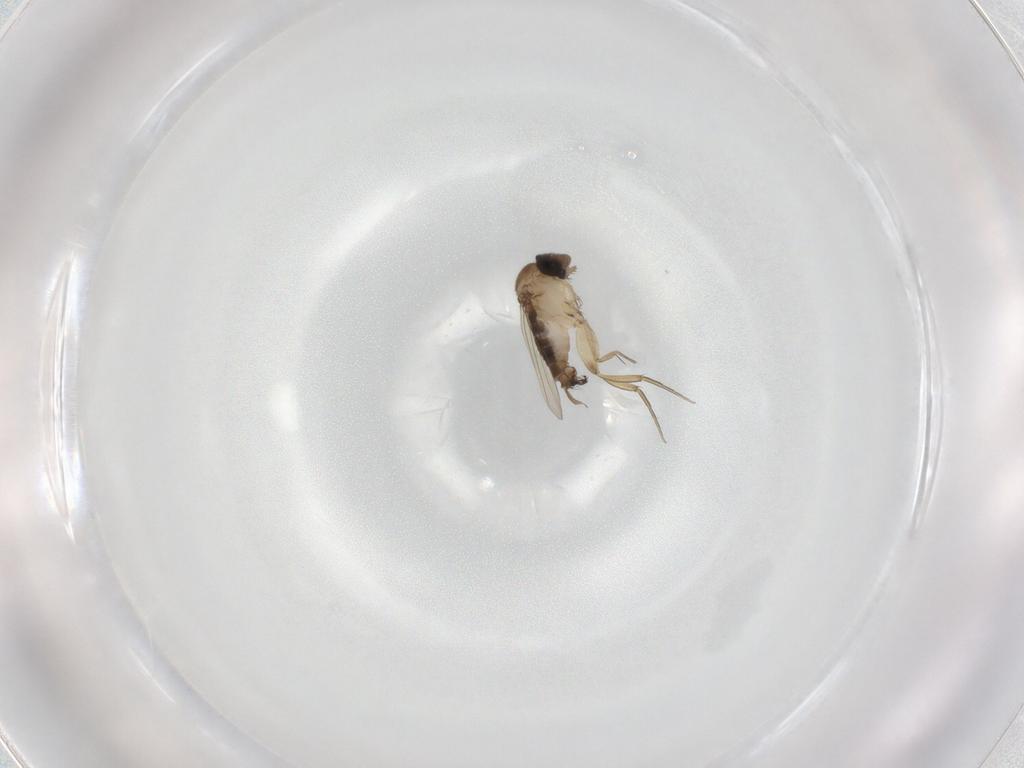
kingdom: Animalia
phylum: Arthropoda
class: Insecta
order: Diptera
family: Phoridae
